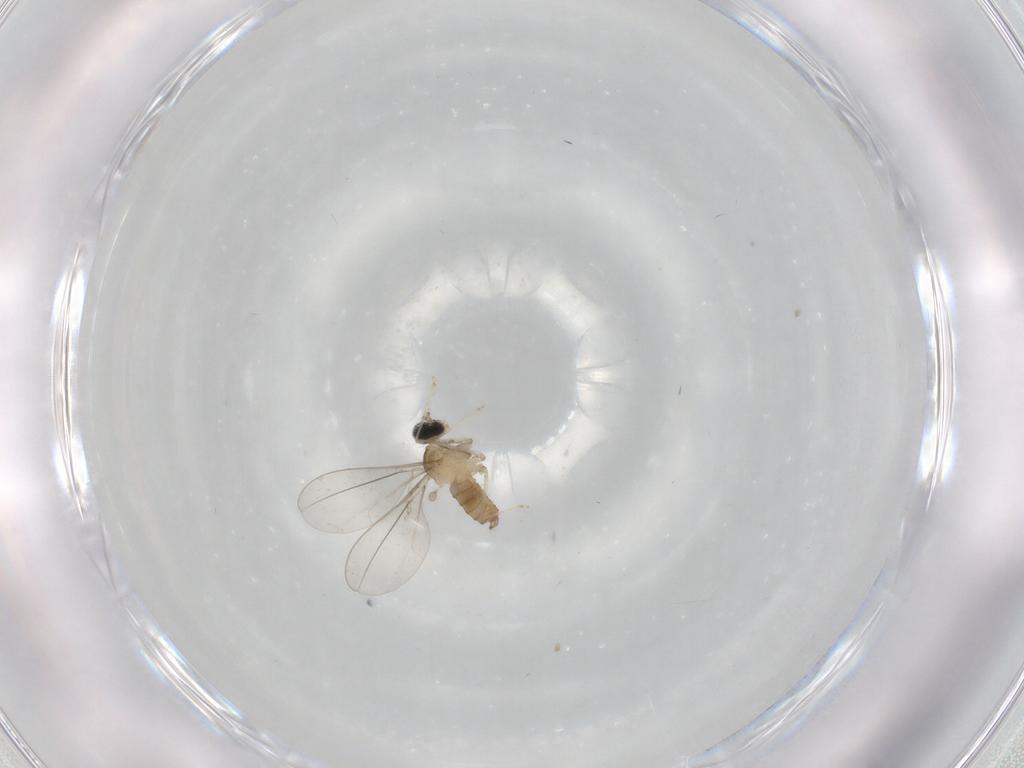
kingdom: Animalia
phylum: Arthropoda
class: Insecta
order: Diptera
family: Cecidomyiidae
